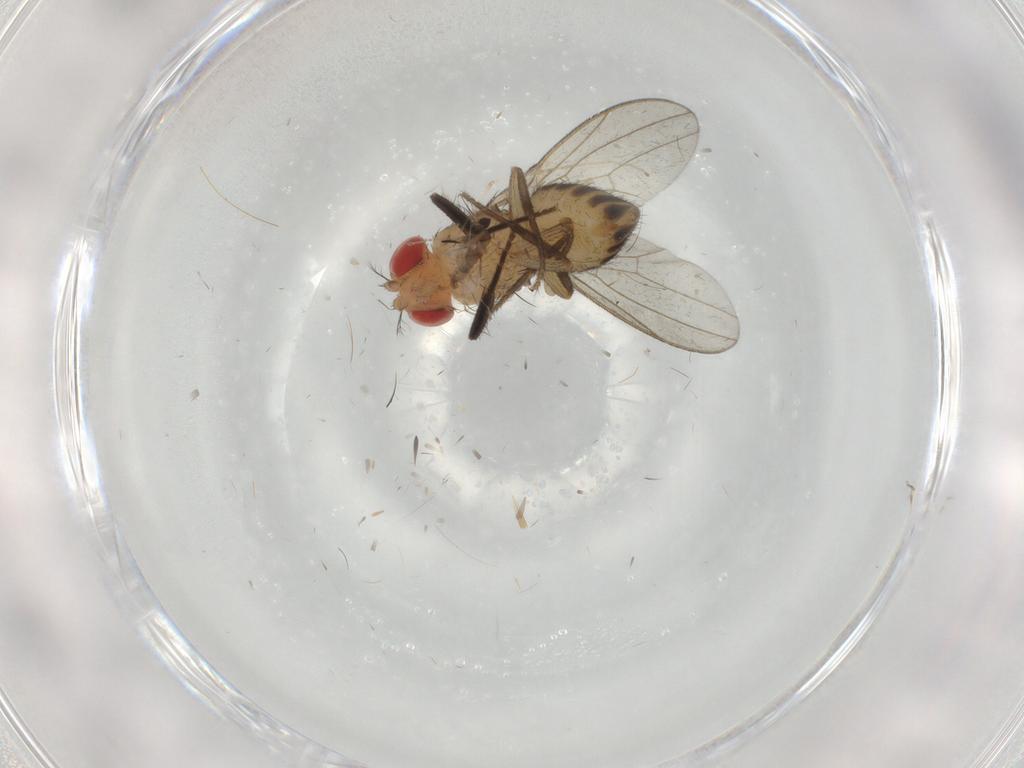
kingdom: Animalia
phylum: Arthropoda
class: Insecta
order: Diptera
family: Drosophilidae
